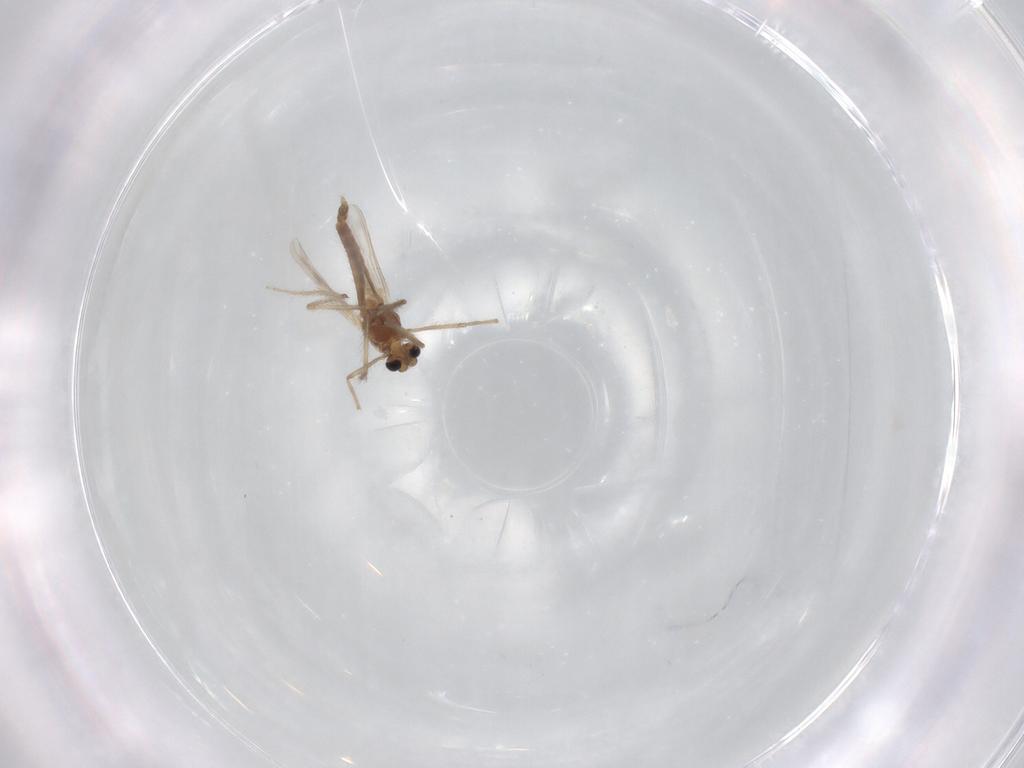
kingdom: Animalia
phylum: Arthropoda
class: Insecta
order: Diptera
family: Chironomidae
